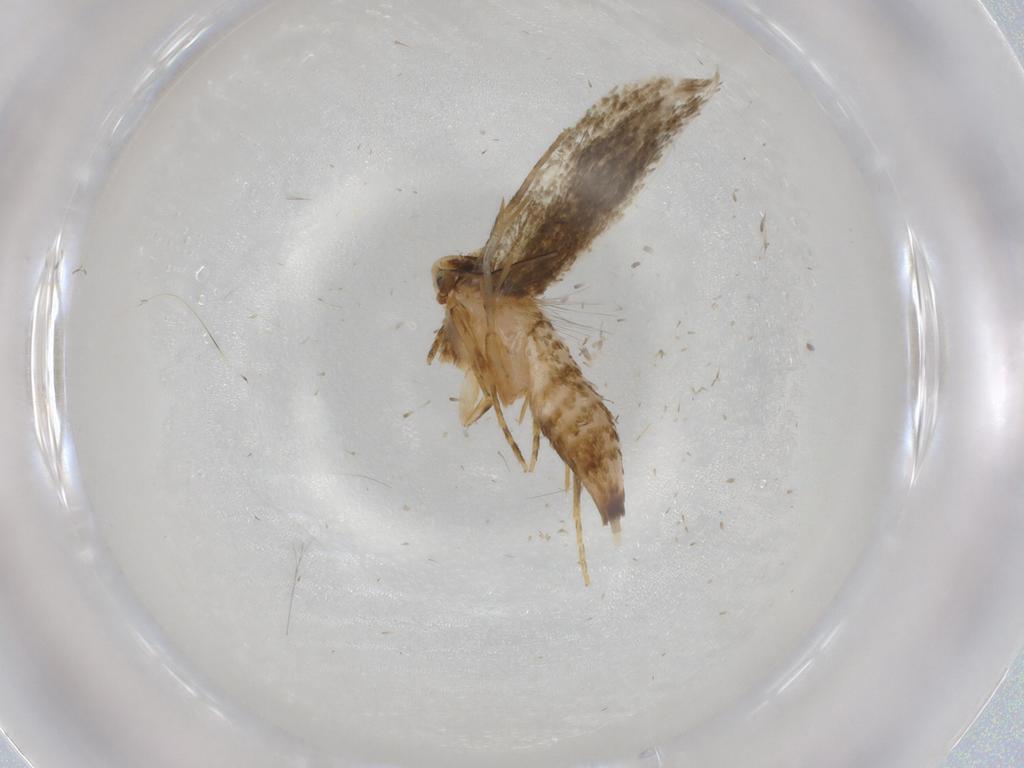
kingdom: Animalia
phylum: Arthropoda
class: Insecta
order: Lepidoptera
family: Tineidae
